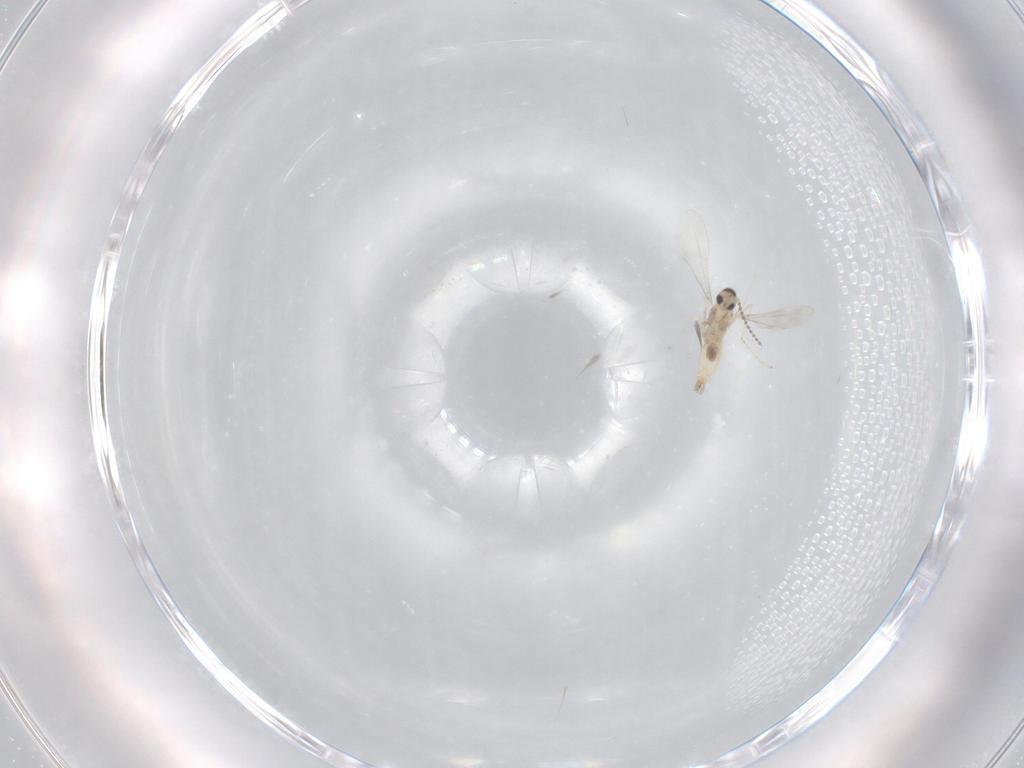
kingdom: Animalia
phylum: Arthropoda
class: Insecta
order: Diptera
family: Cecidomyiidae
